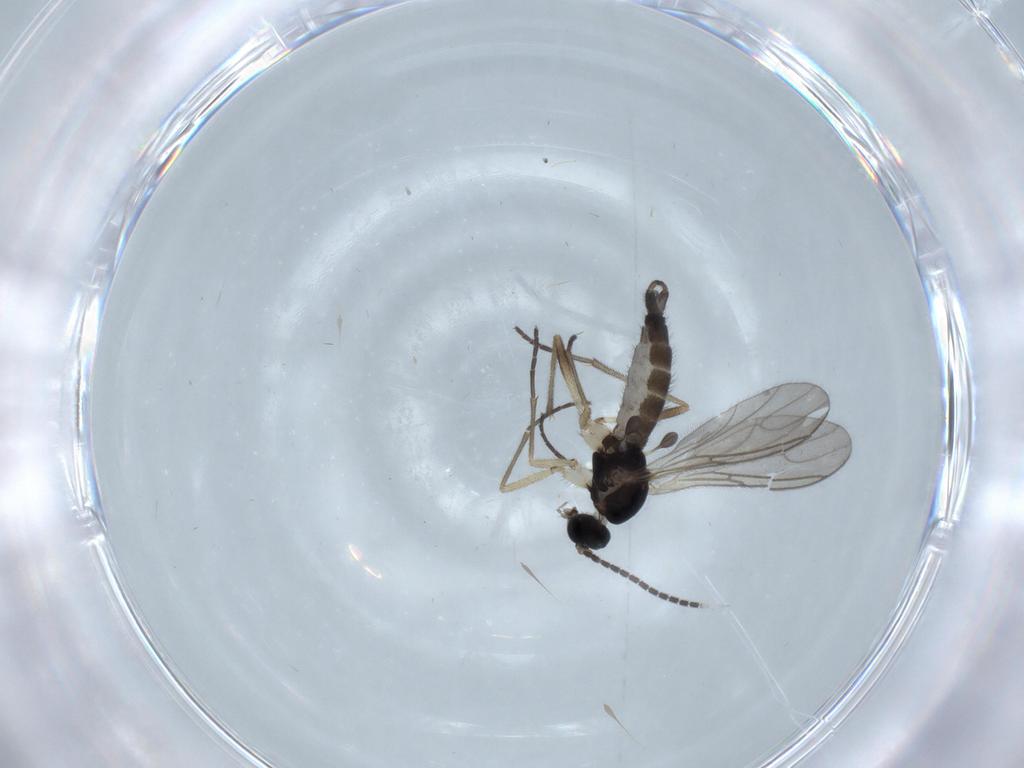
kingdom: Animalia
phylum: Arthropoda
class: Insecta
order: Diptera
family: Sciaridae
